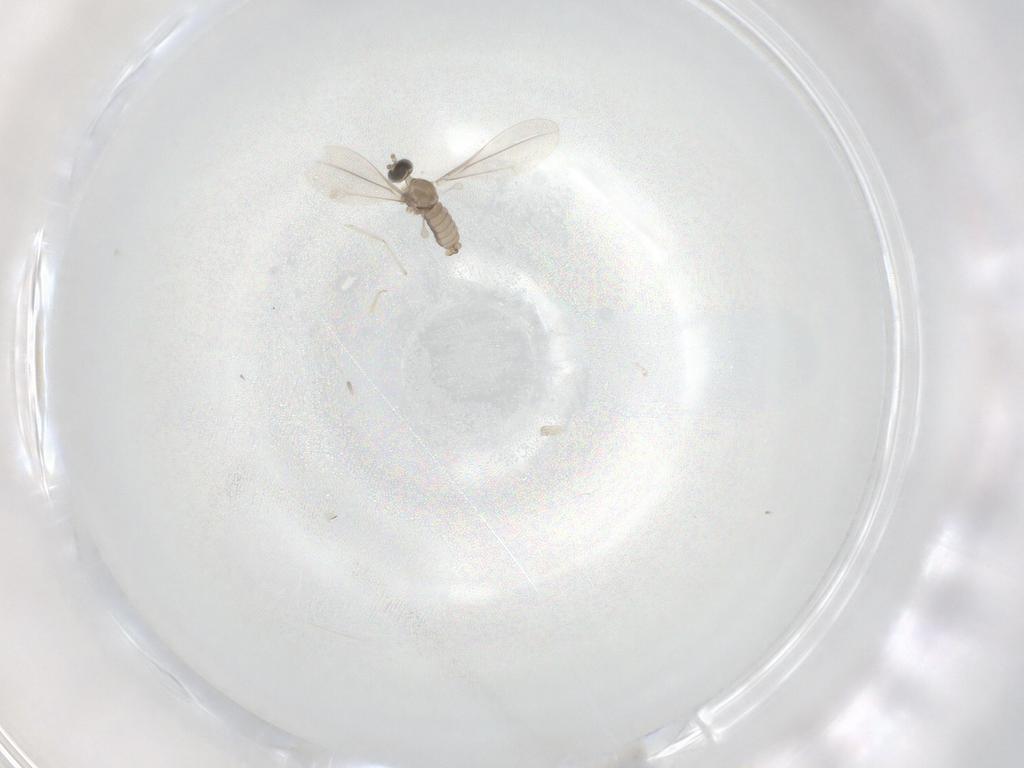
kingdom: Animalia
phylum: Arthropoda
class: Insecta
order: Diptera
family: Cecidomyiidae
